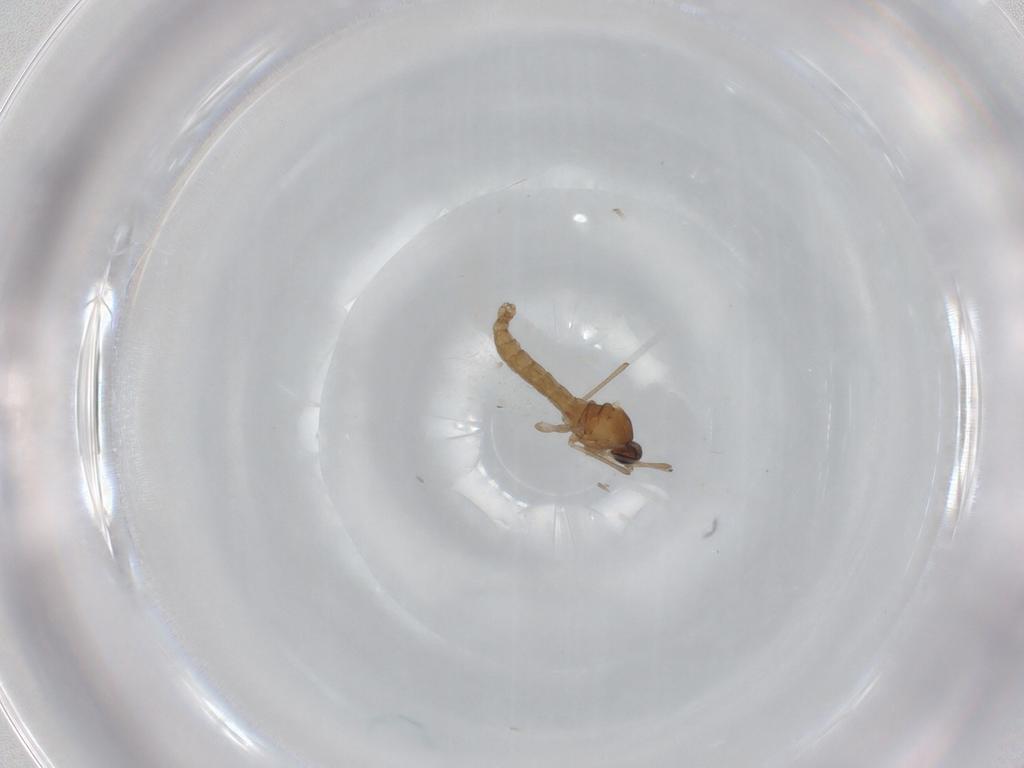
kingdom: Animalia
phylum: Arthropoda
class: Insecta
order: Diptera
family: Cecidomyiidae
